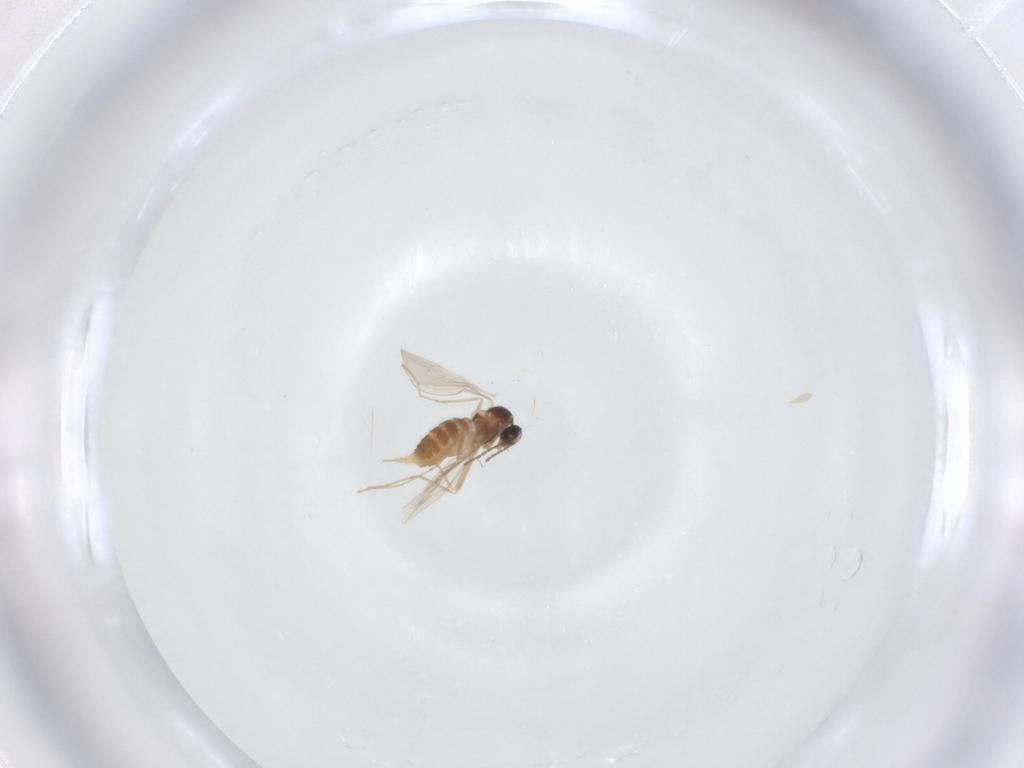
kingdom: Animalia
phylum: Arthropoda
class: Insecta
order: Diptera
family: Cecidomyiidae
